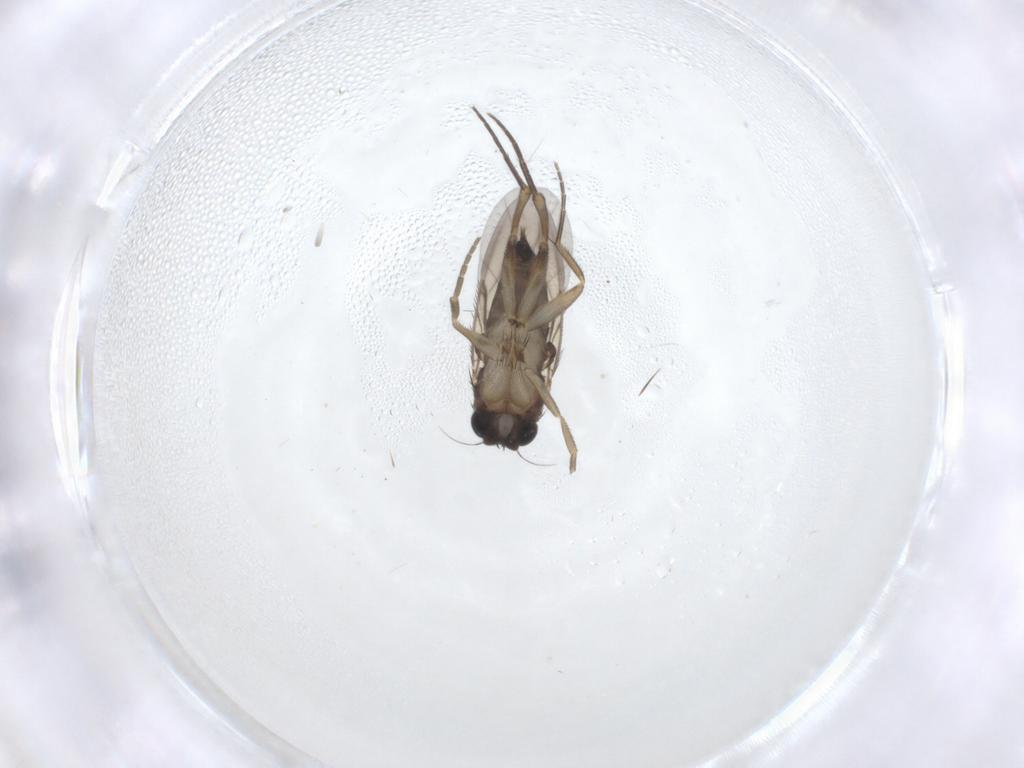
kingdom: Animalia
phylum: Arthropoda
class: Insecta
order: Diptera
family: Phoridae
